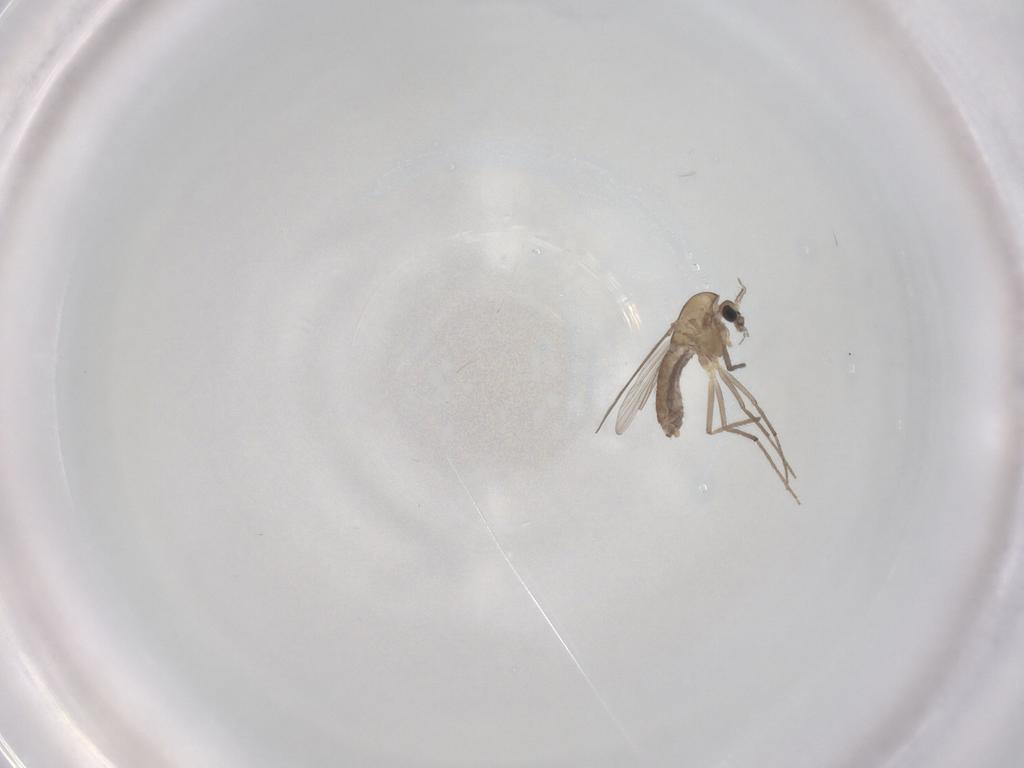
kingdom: Animalia
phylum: Arthropoda
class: Insecta
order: Diptera
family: Chironomidae
